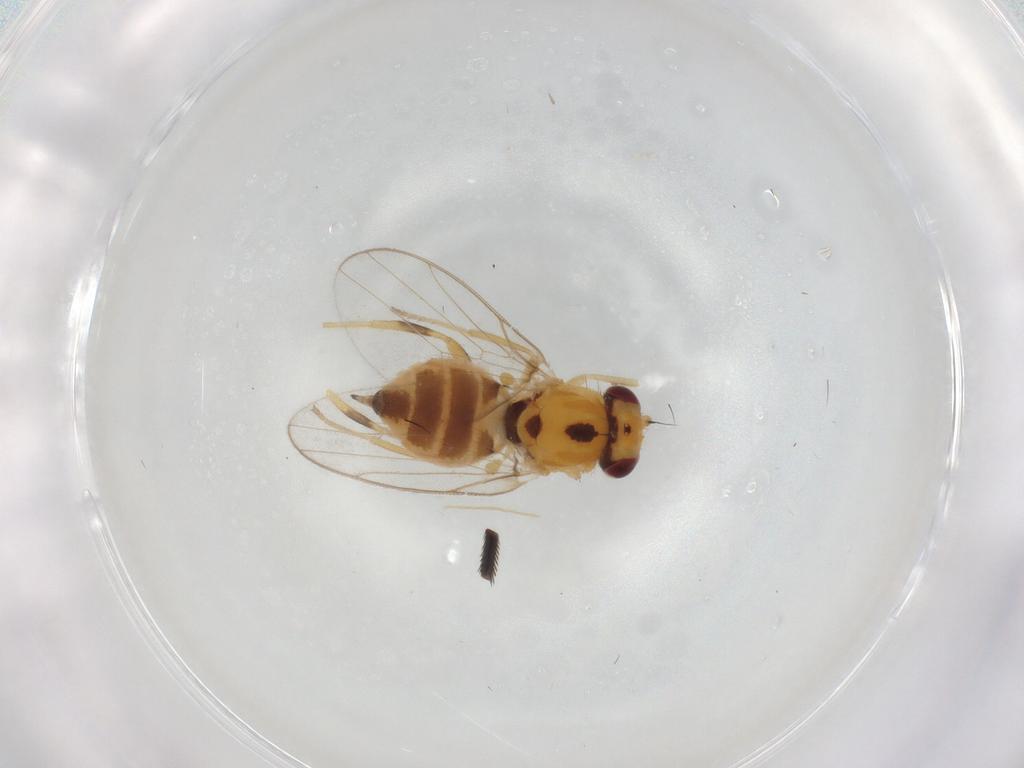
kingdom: Animalia
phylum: Arthropoda
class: Insecta
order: Diptera
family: Chloropidae
